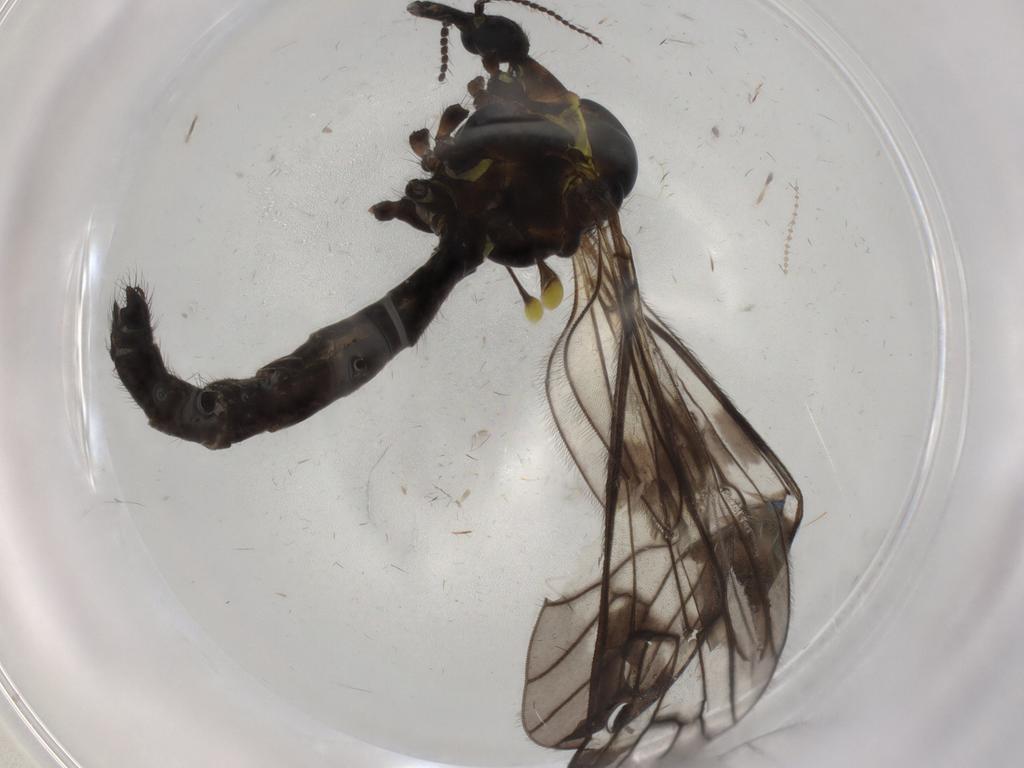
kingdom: Animalia
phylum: Arthropoda
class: Insecta
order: Diptera
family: Limoniidae
